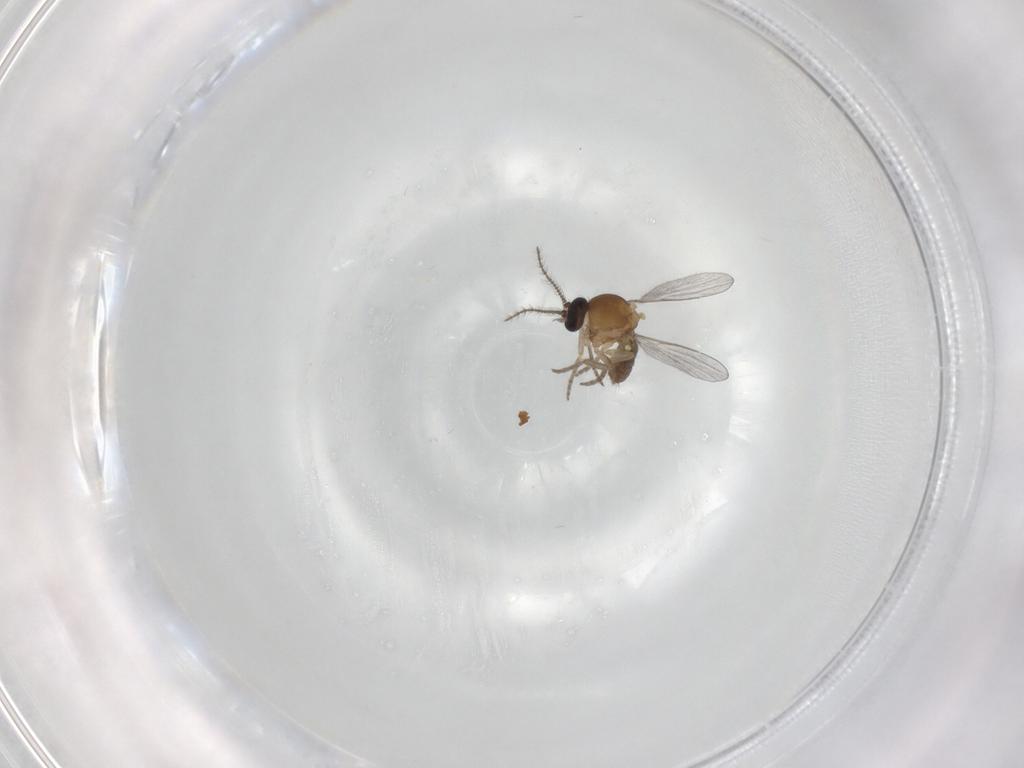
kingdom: Animalia
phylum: Arthropoda
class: Insecta
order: Diptera
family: Ceratopogonidae
